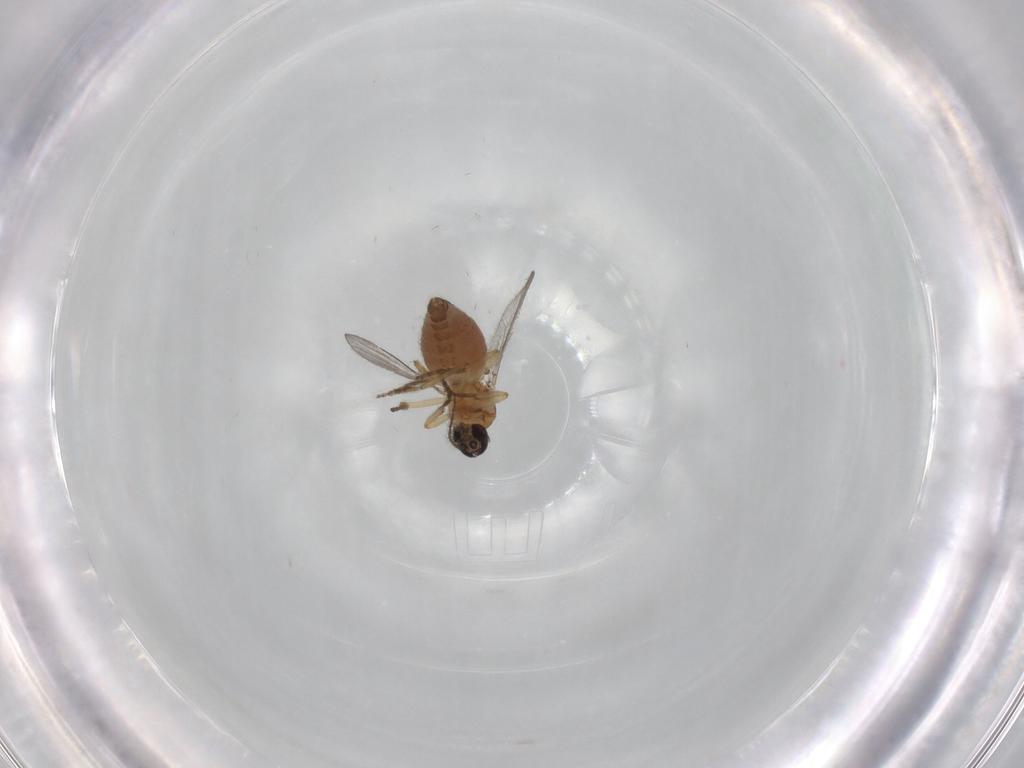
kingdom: Animalia
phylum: Arthropoda
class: Insecta
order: Diptera
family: Ceratopogonidae
